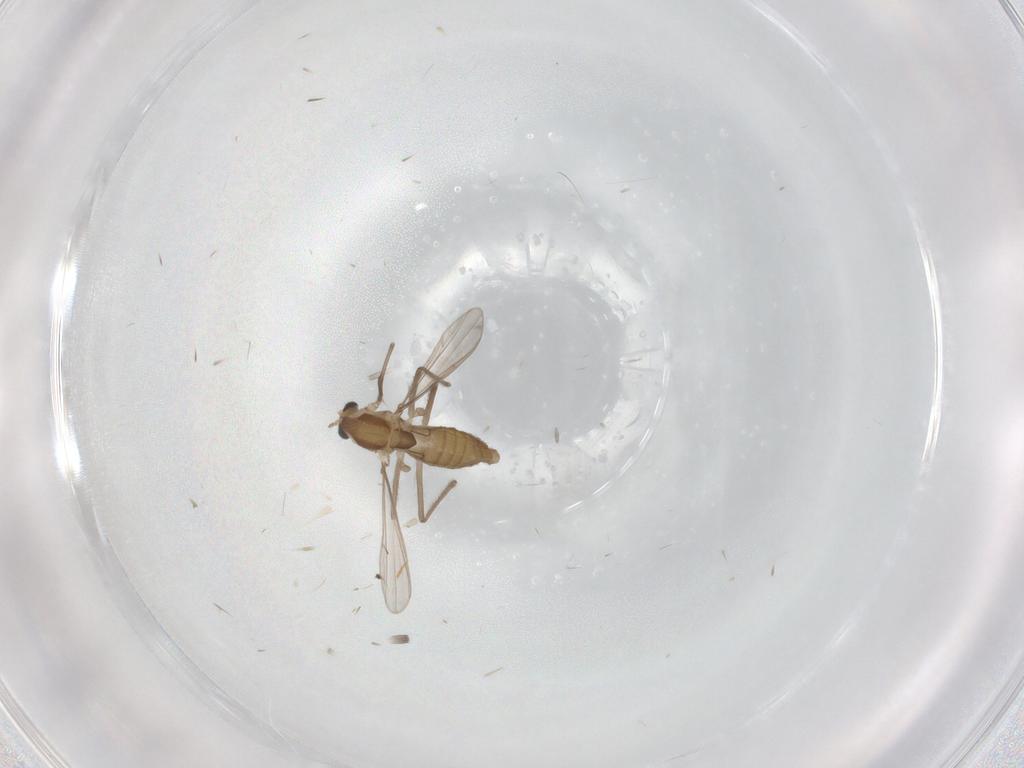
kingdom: Animalia
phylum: Arthropoda
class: Insecta
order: Diptera
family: Chironomidae
